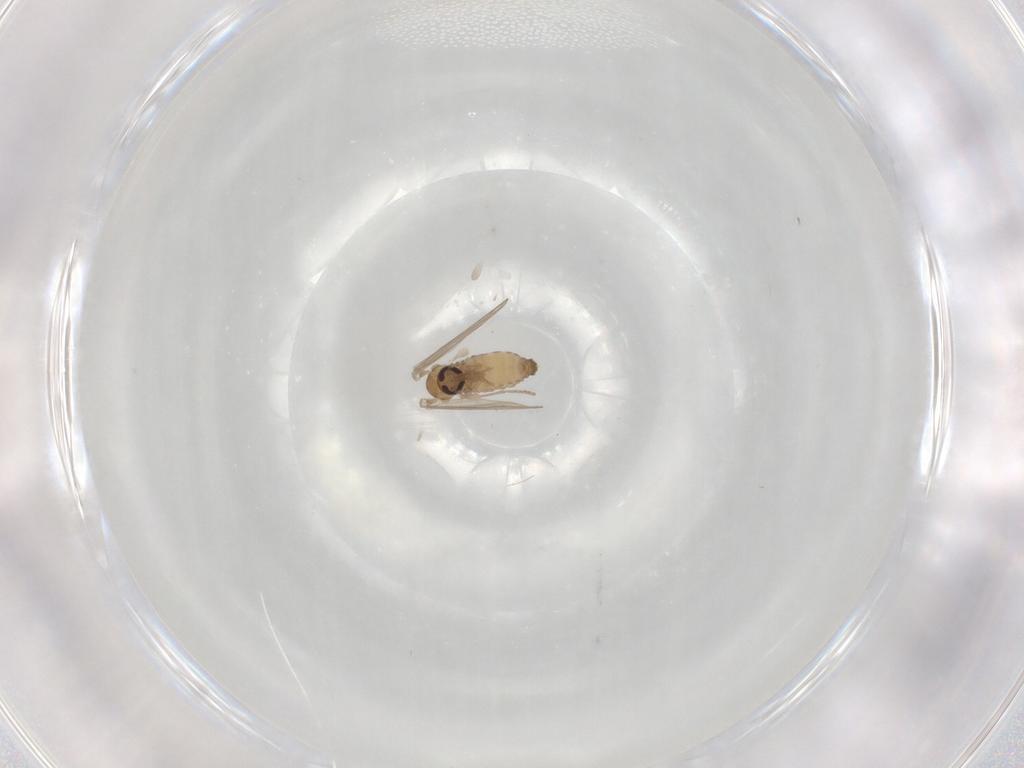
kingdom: Animalia
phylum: Arthropoda
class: Insecta
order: Diptera
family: Psychodidae
